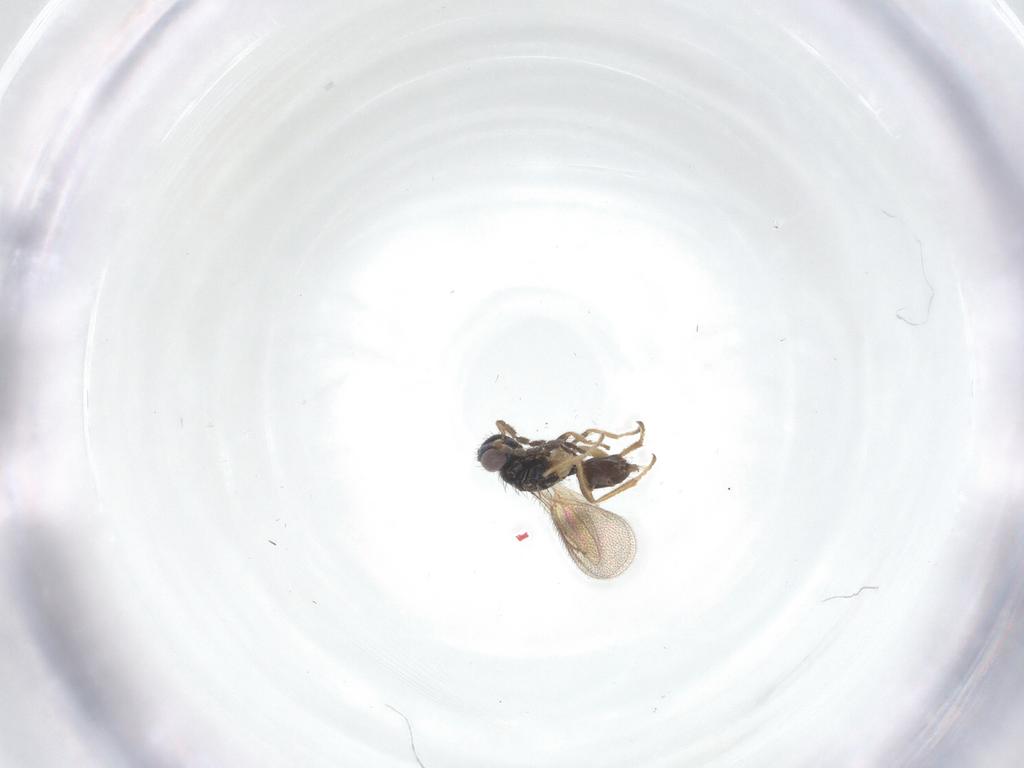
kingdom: Animalia
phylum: Arthropoda
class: Insecta
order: Hymenoptera
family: Eulophidae
